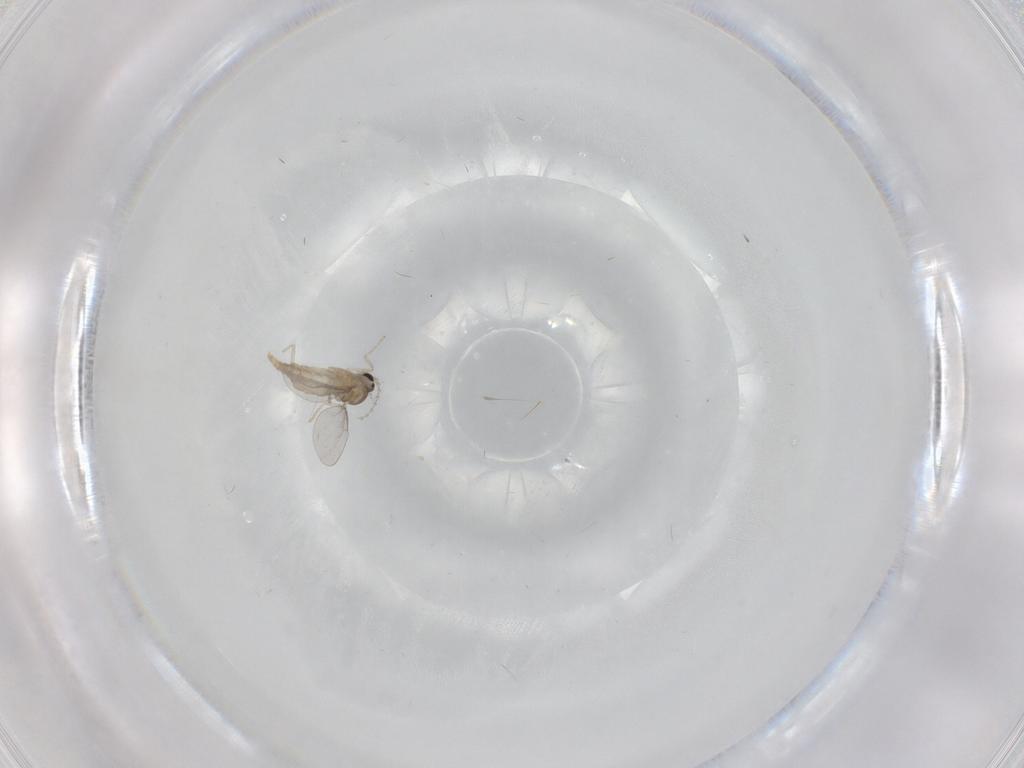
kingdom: Animalia
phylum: Arthropoda
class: Insecta
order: Diptera
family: Cecidomyiidae
